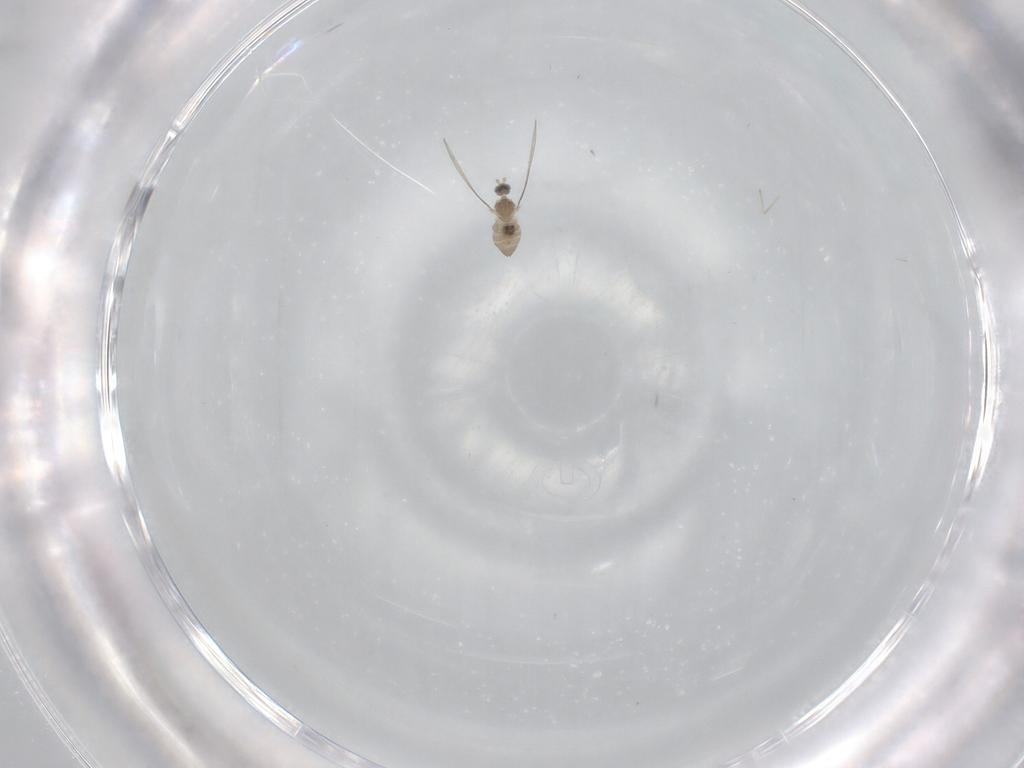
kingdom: Animalia
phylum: Arthropoda
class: Insecta
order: Diptera
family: Cecidomyiidae
